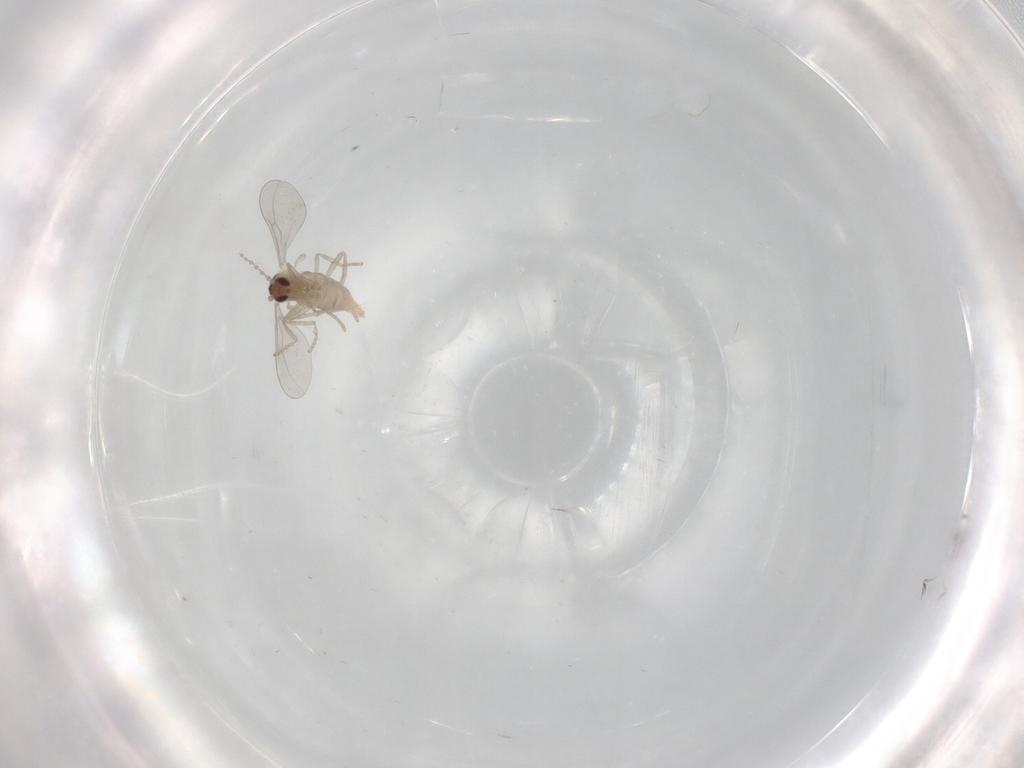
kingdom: Animalia
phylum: Arthropoda
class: Insecta
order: Diptera
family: Cecidomyiidae
